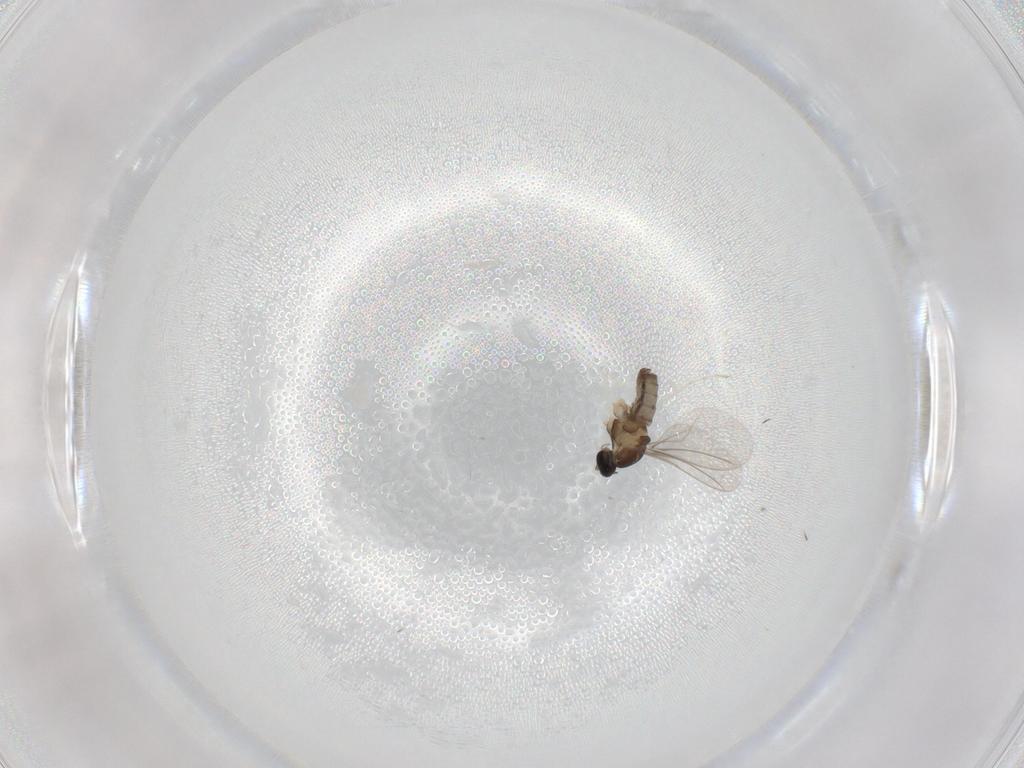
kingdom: Animalia
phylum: Arthropoda
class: Insecta
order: Diptera
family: Cecidomyiidae
